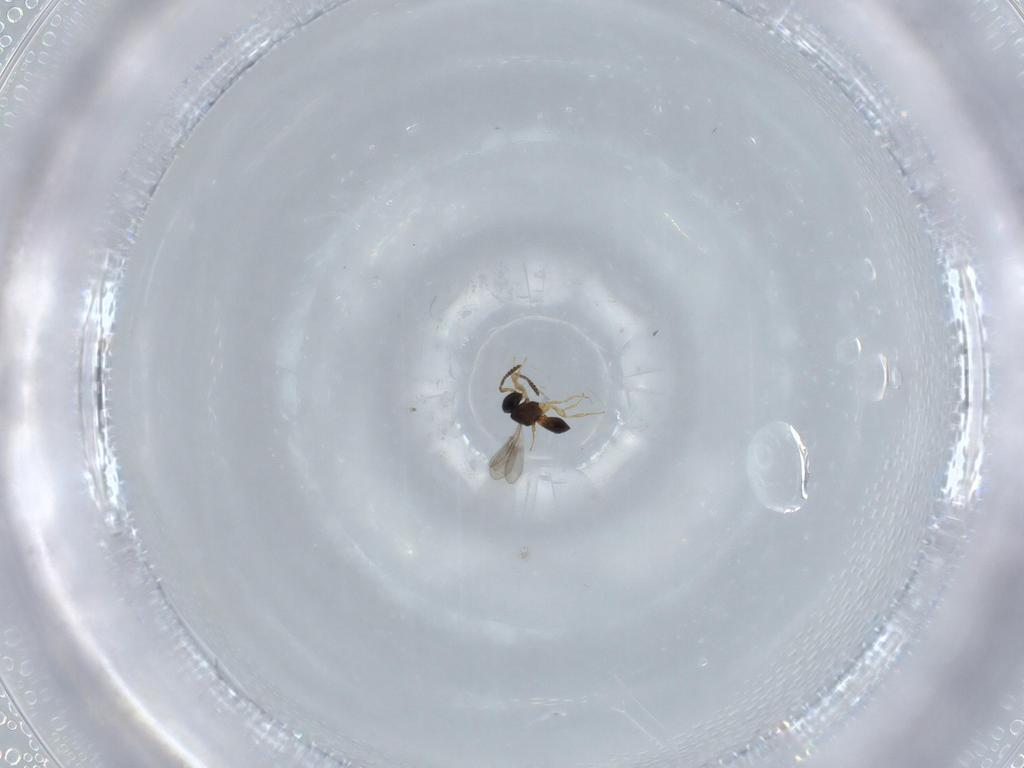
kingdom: Animalia
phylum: Arthropoda
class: Insecta
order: Hymenoptera
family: Scelionidae
